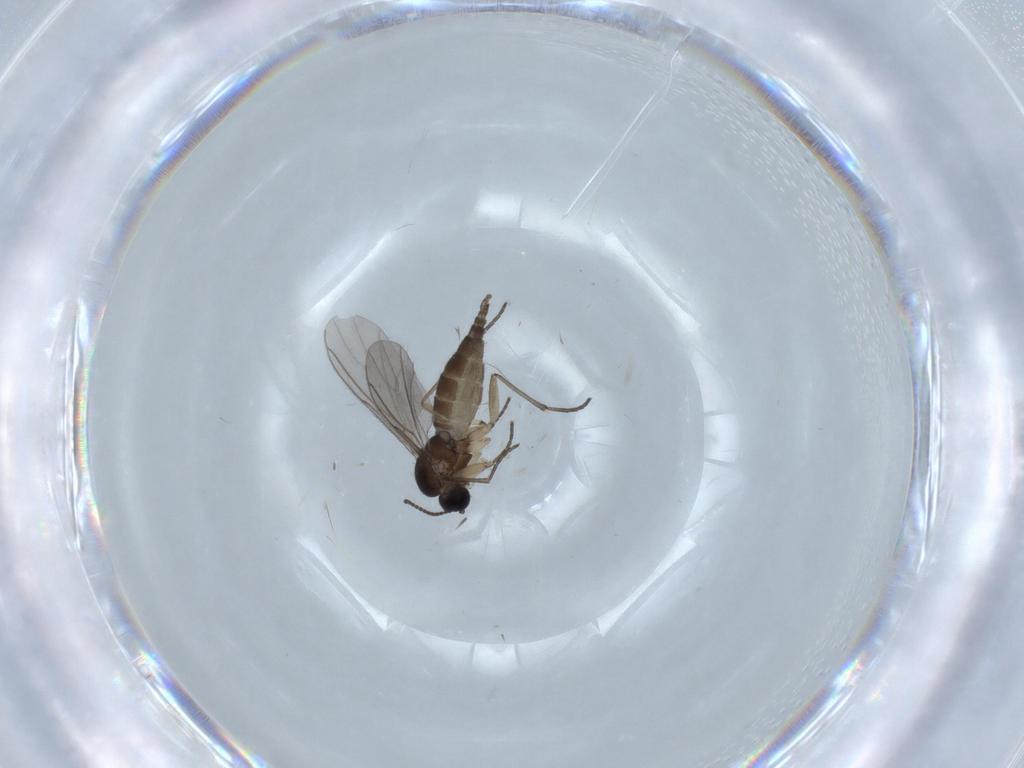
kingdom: Animalia
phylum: Arthropoda
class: Insecta
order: Diptera
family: Sciaridae
